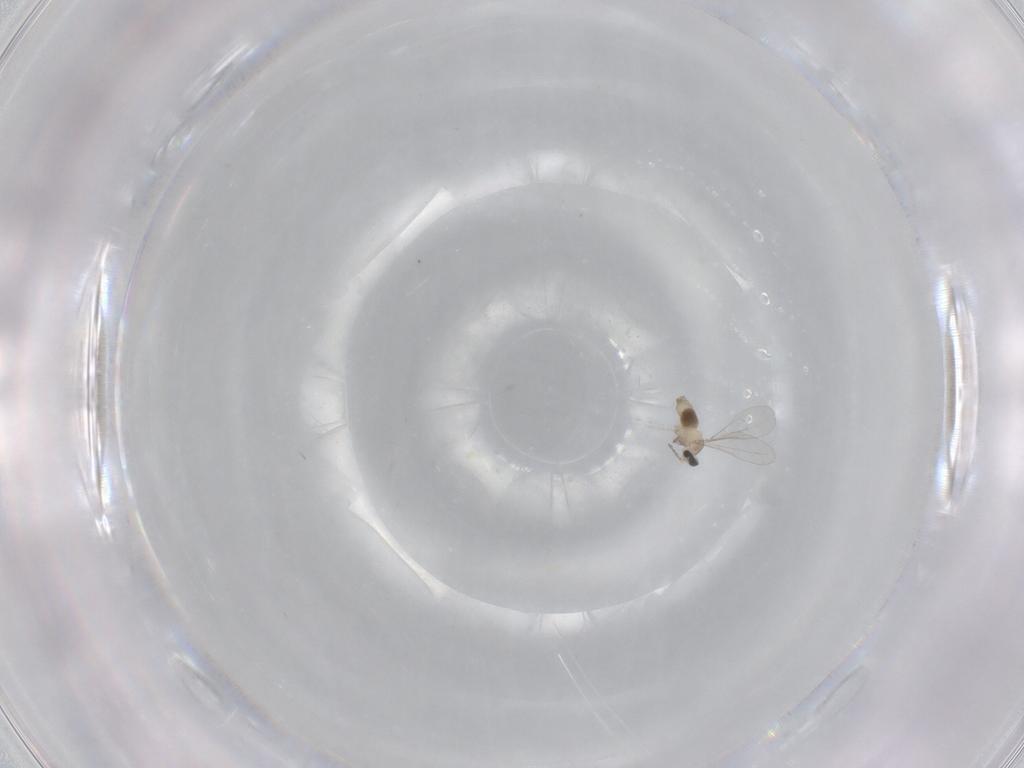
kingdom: Animalia
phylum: Arthropoda
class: Insecta
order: Diptera
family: Cecidomyiidae
